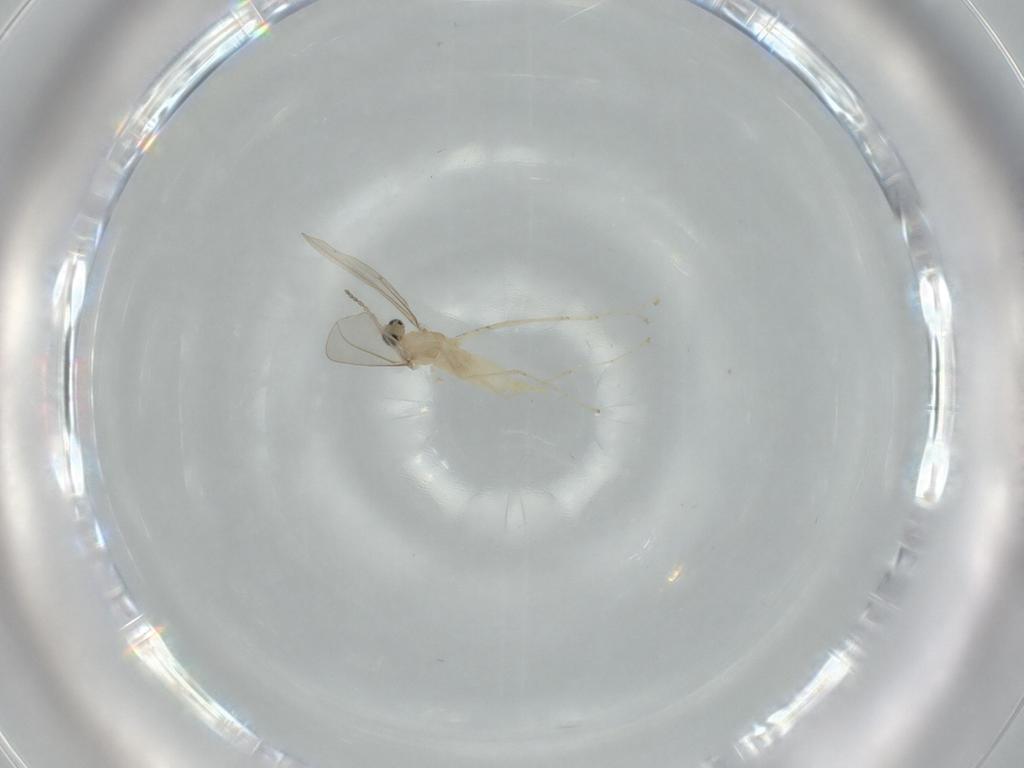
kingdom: Animalia
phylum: Arthropoda
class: Insecta
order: Diptera
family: Cecidomyiidae
